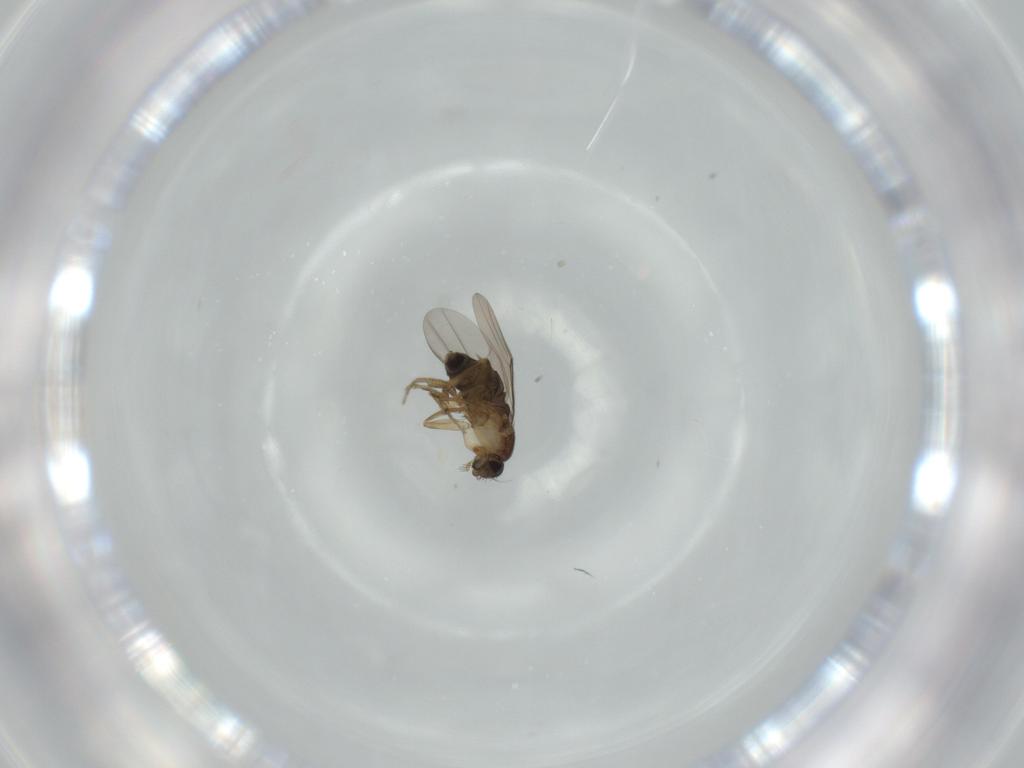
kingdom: Animalia
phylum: Arthropoda
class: Insecta
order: Diptera
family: Phoridae
